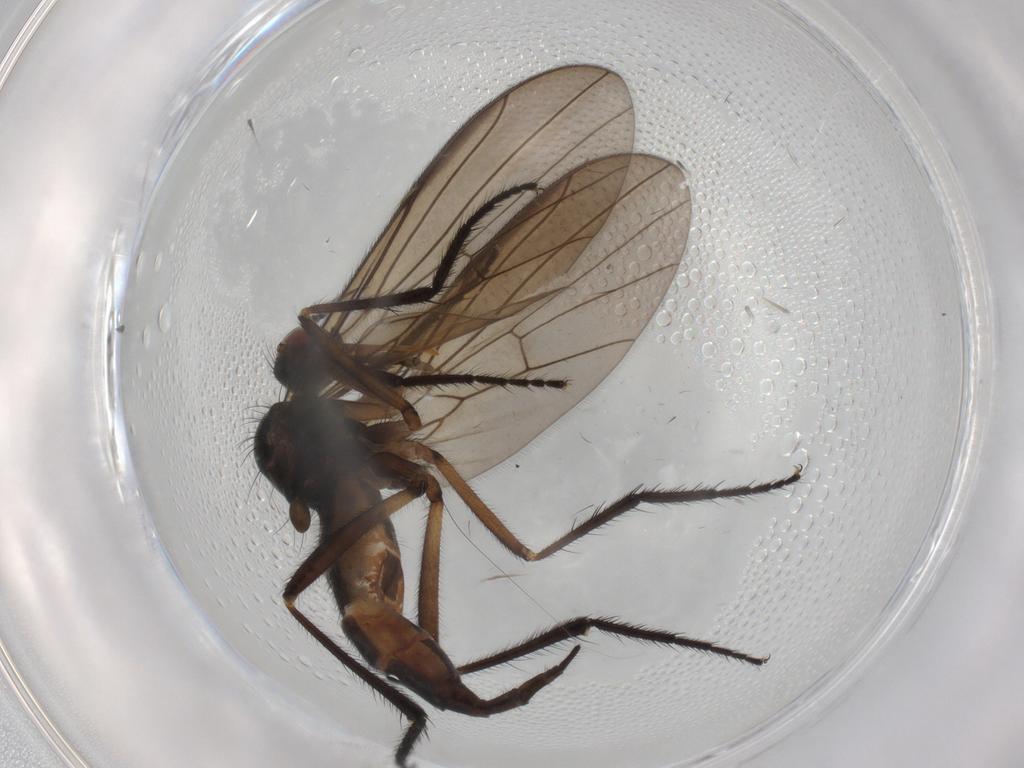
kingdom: Animalia
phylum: Arthropoda
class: Insecta
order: Diptera
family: Empididae
